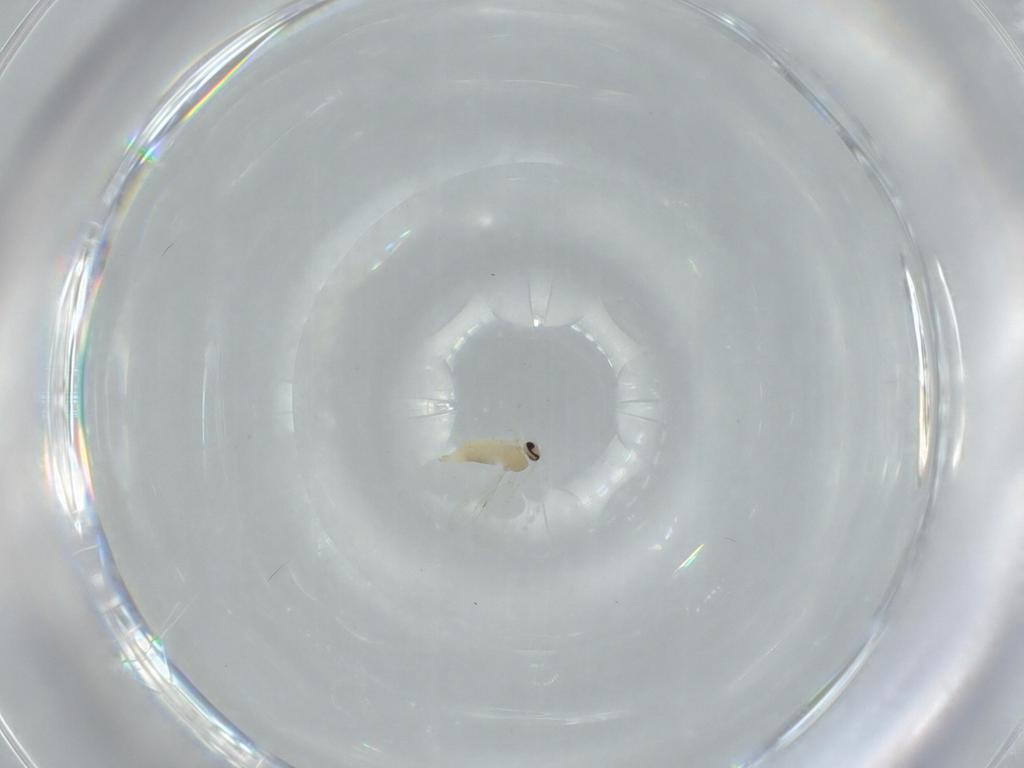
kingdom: Animalia
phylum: Arthropoda
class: Insecta
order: Diptera
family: Cecidomyiidae
